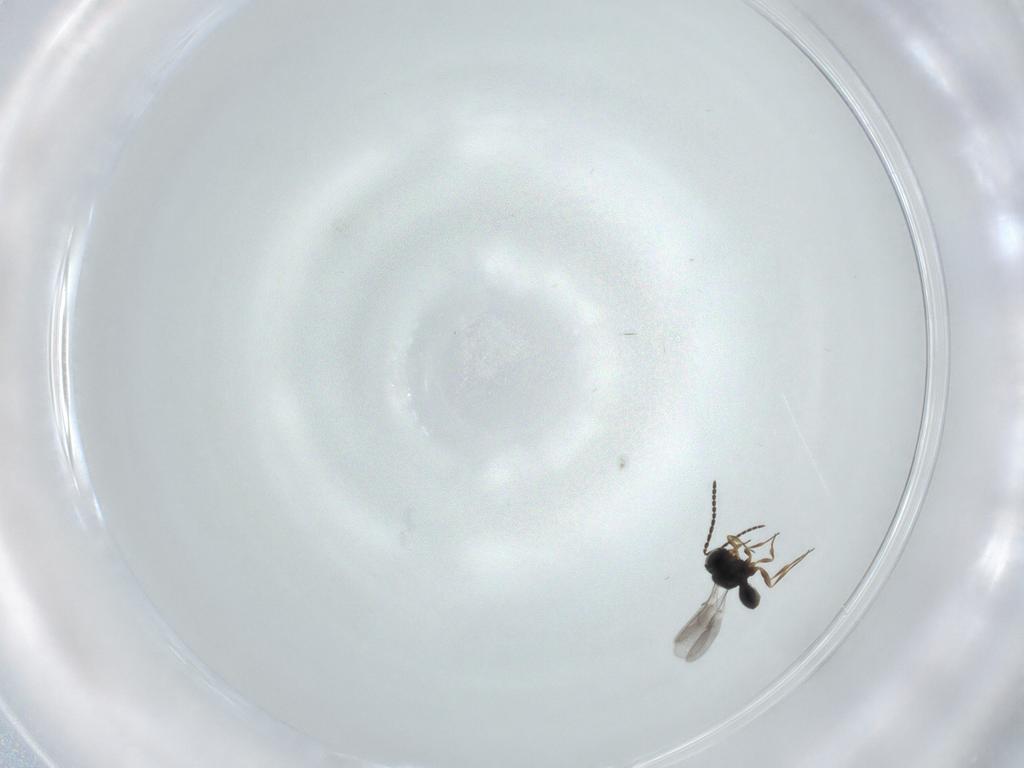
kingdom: Animalia
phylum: Arthropoda
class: Insecta
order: Hymenoptera
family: Scelionidae
